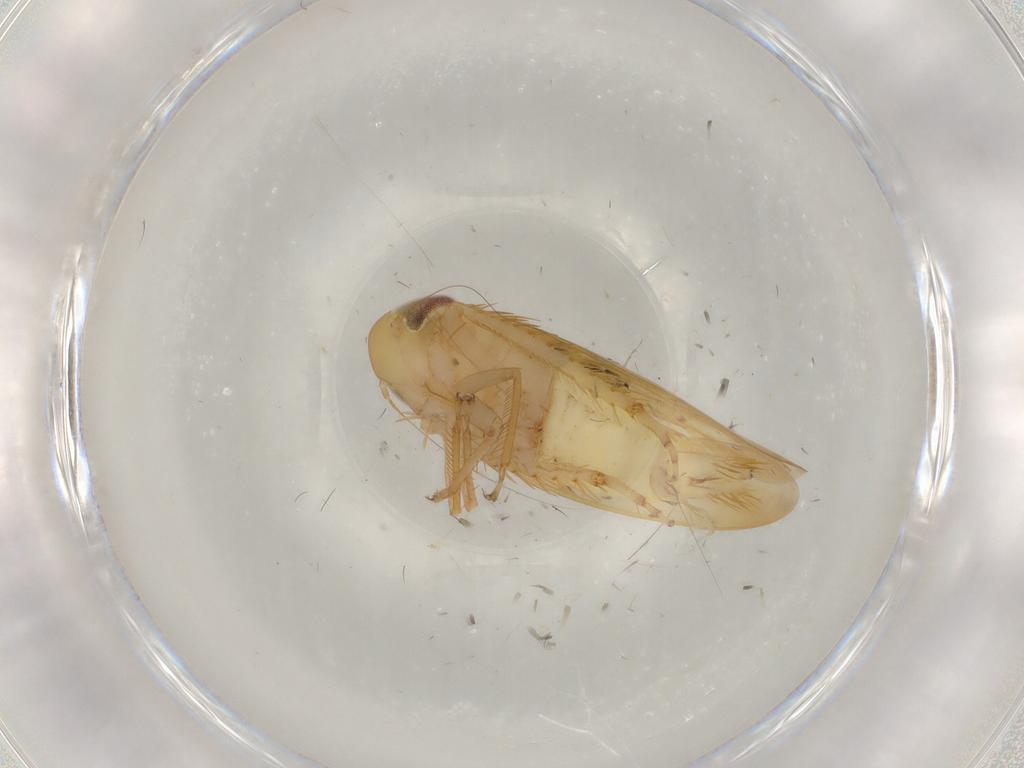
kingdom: Animalia
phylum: Arthropoda
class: Insecta
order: Hemiptera
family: Cicadellidae
